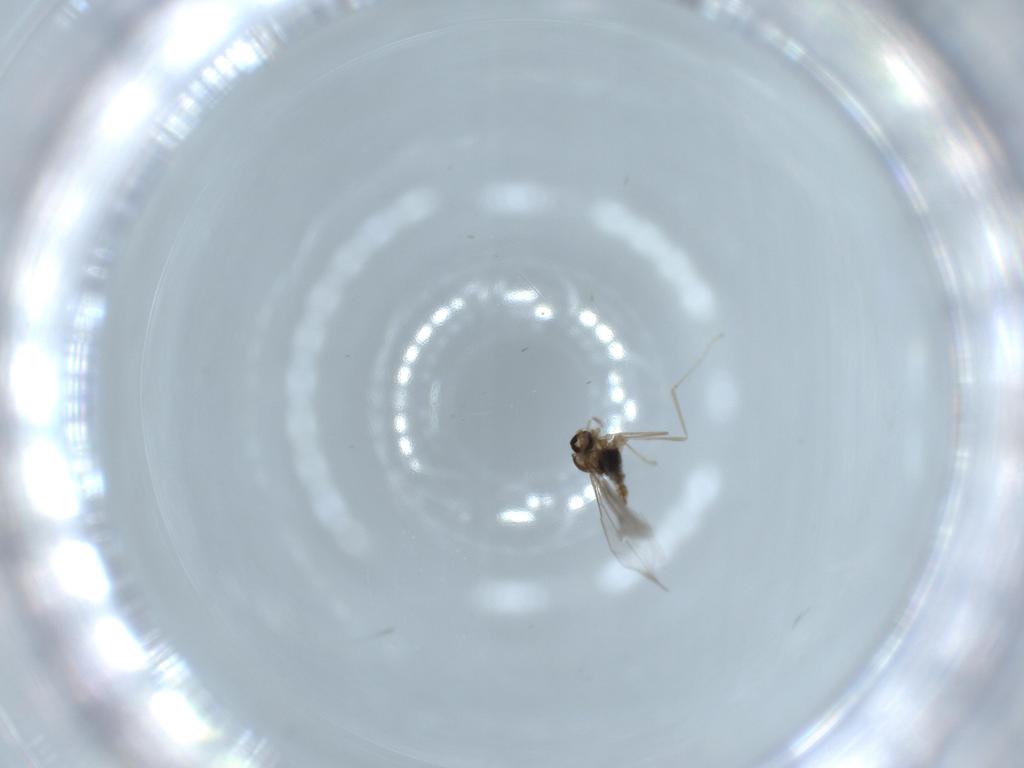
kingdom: Animalia
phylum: Arthropoda
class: Insecta
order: Diptera
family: Cecidomyiidae
